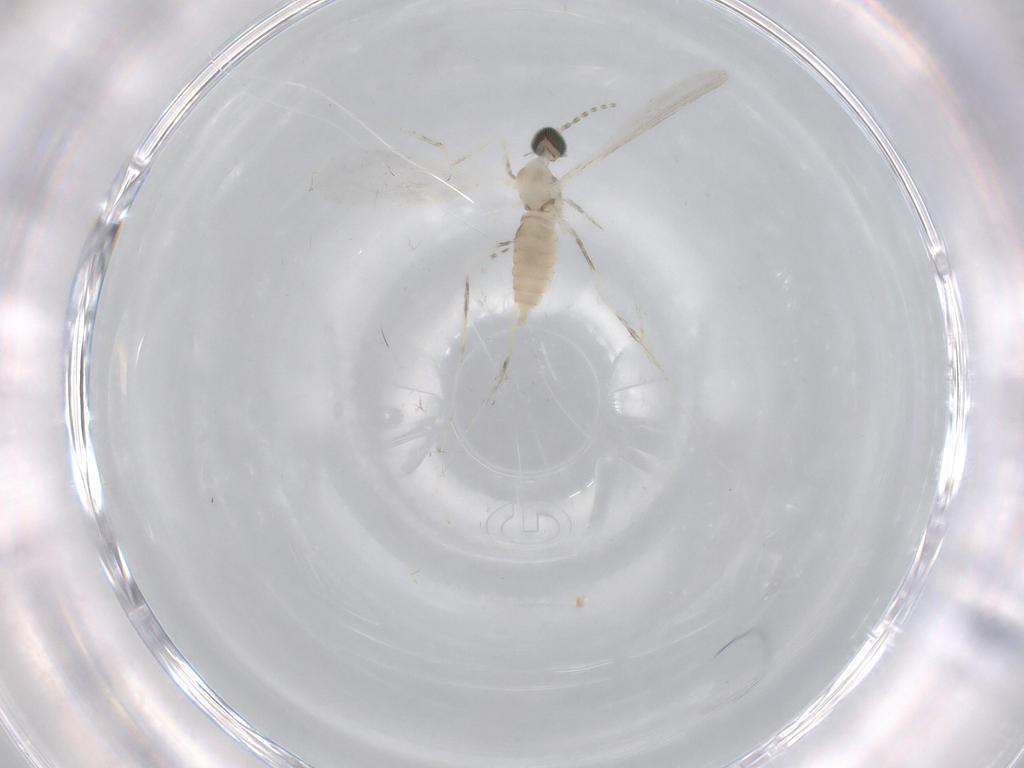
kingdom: Animalia
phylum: Arthropoda
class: Insecta
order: Diptera
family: Cecidomyiidae
